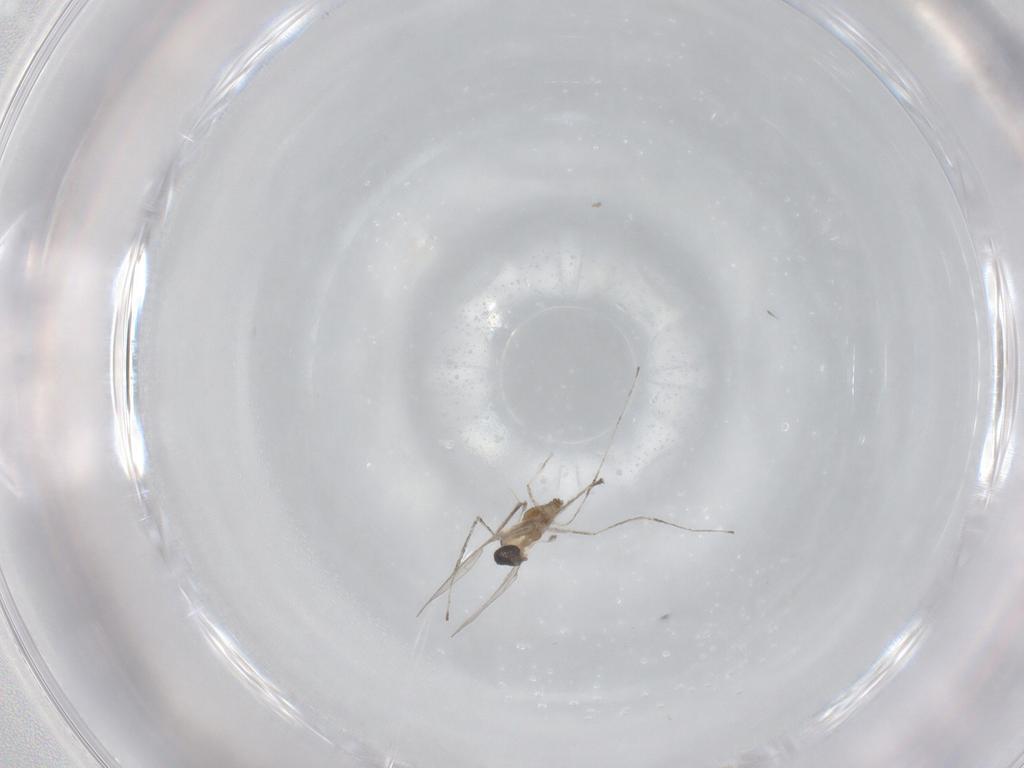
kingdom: Animalia
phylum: Arthropoda
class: Insecta
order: Diptera
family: Cecidomyiidae
